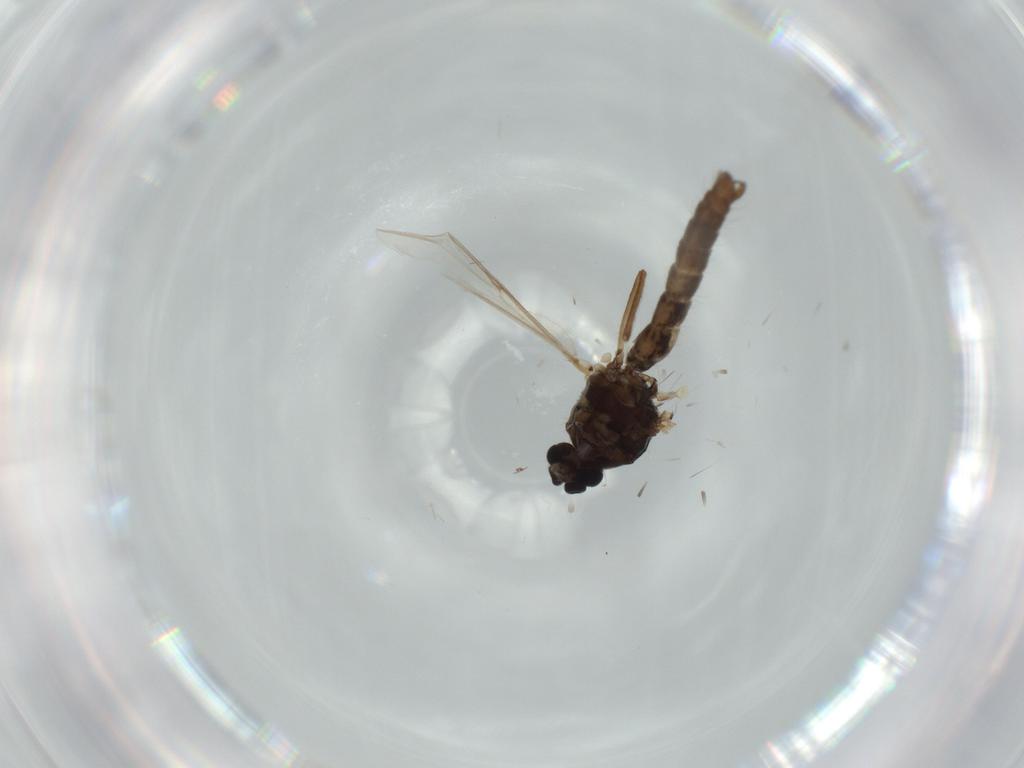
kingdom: Animalia
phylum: Arthropoda
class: Insecta
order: Diptera
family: Ceratopogonidae
